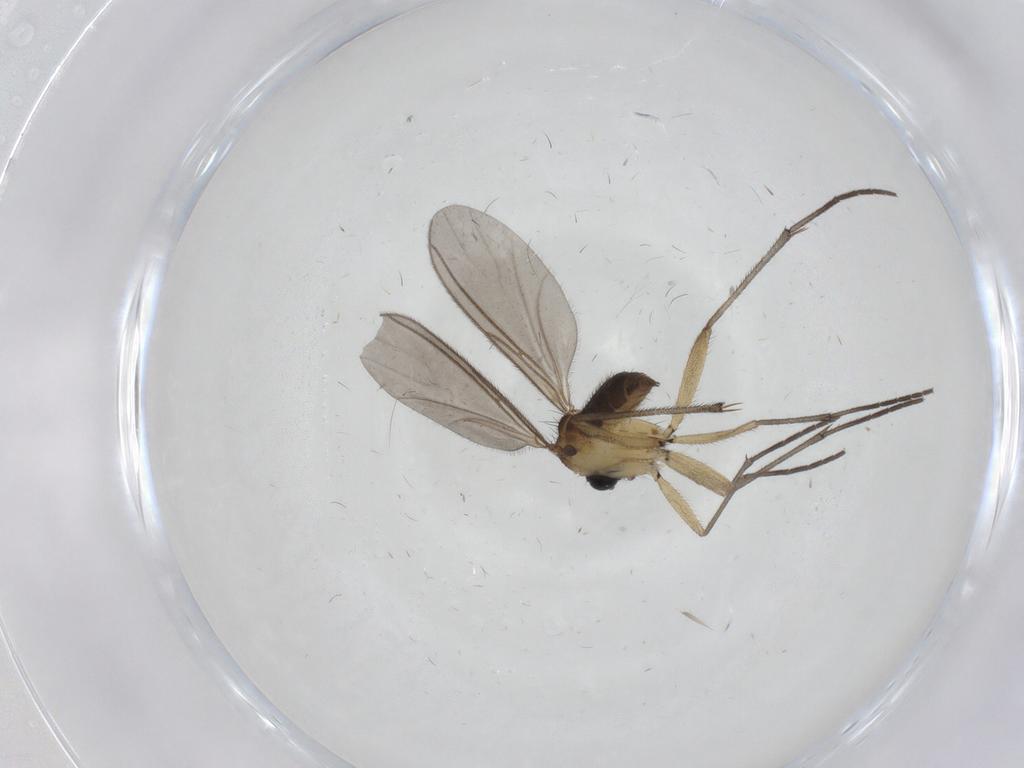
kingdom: Animalia
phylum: Arthropoda
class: Insecta
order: Diptera
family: Sciaridae
